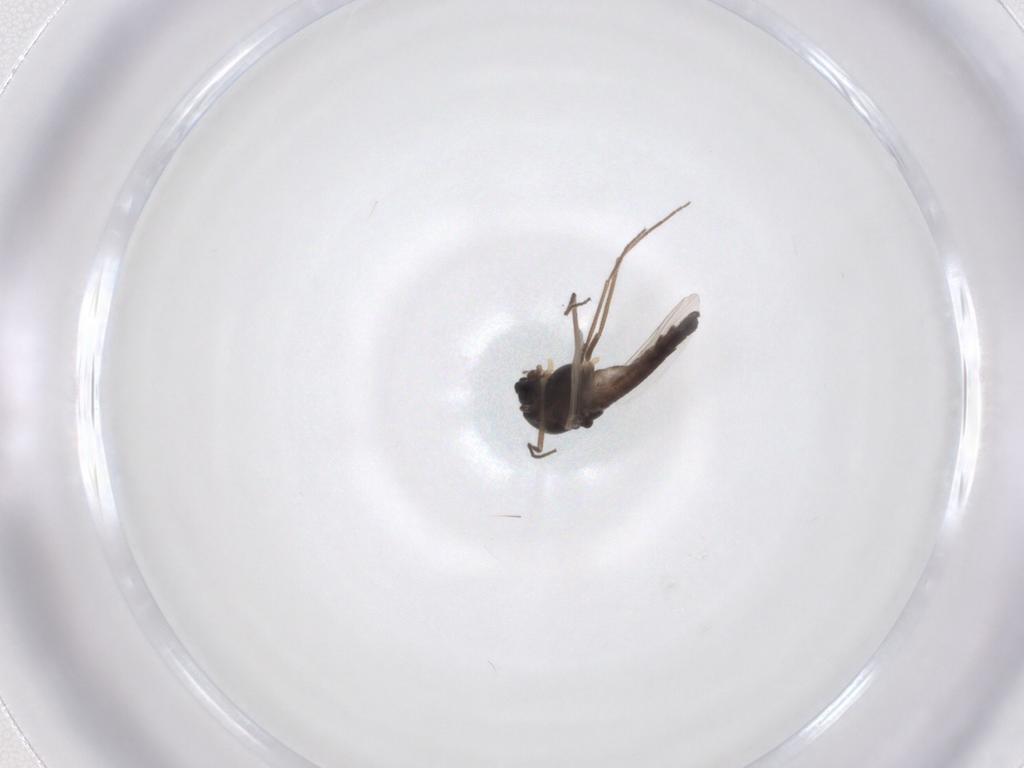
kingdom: Animalia
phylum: Arthropoda
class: Insecta
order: Diptera
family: Chironomidae
